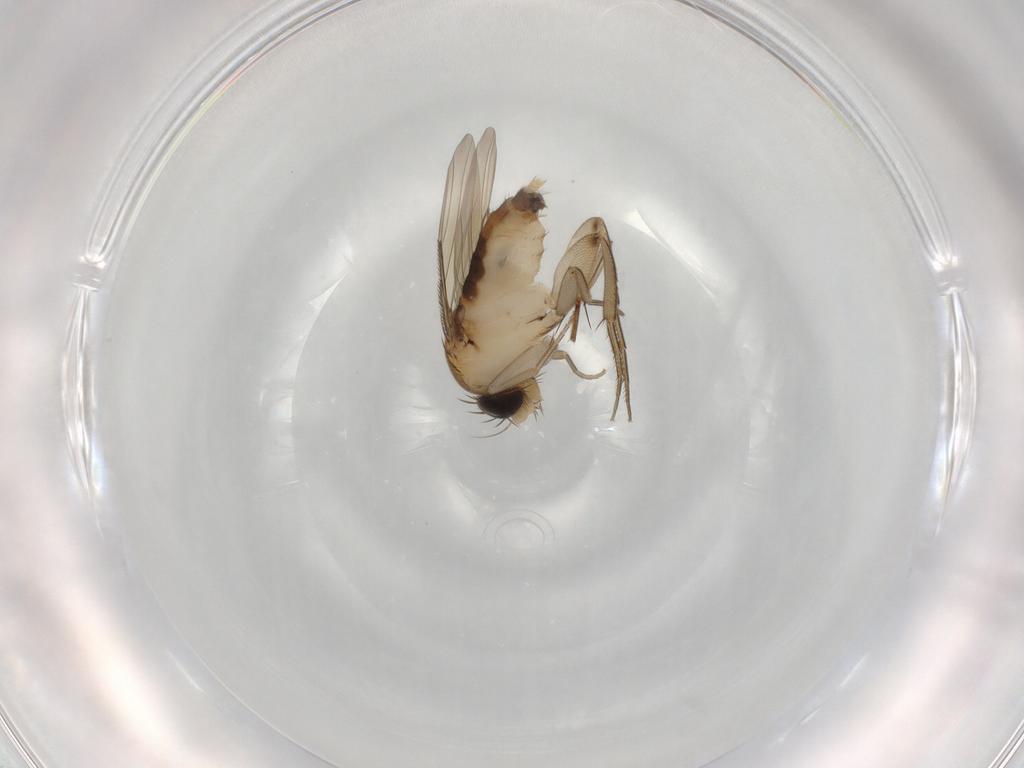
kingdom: Animalia
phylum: Arthropoda
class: Insecta
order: Diptera
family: Phoridae
